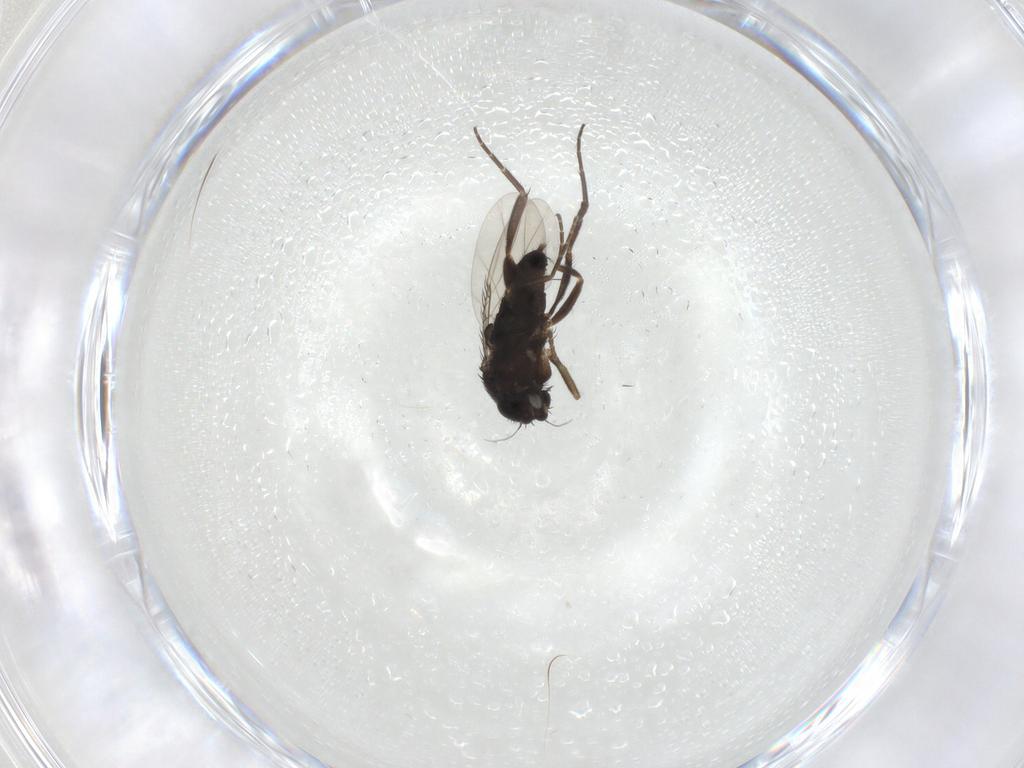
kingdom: Animalia
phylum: Arthropoda
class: Insecta
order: Diptera
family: Phoridae
